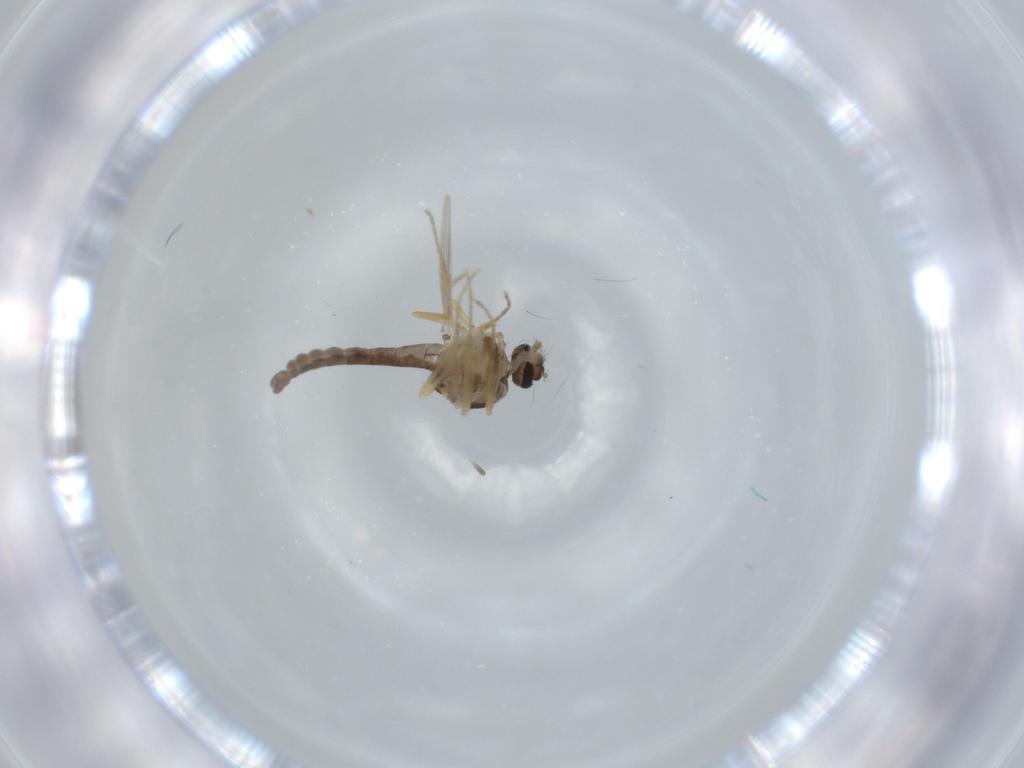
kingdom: Animalia
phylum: Arthropoda
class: Insecta
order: Diptera
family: Ceratopogonidae
